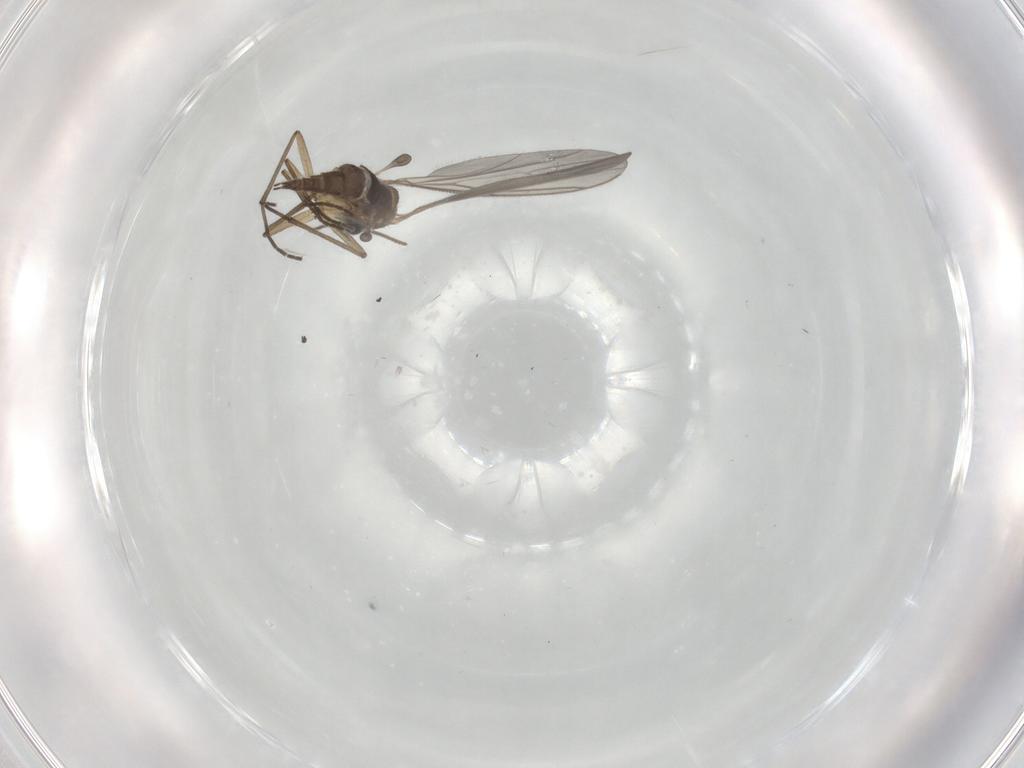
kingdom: Animalia
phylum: Arthropoda
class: Insecta
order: Diptera
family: Sciaridae
